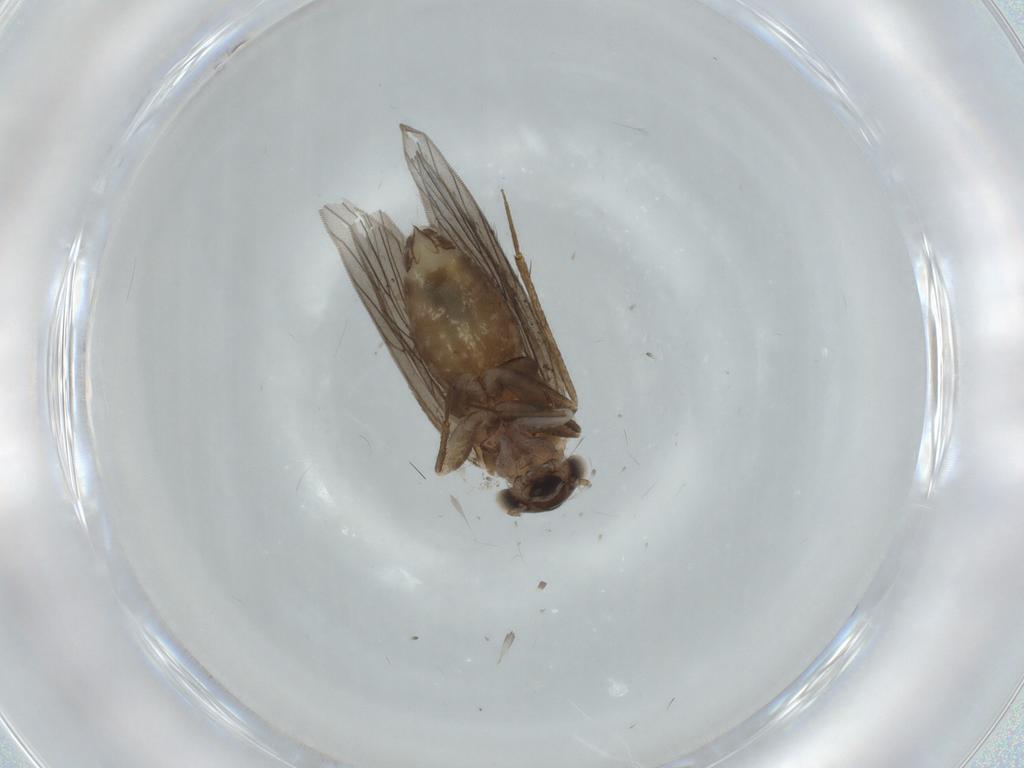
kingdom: Animalia
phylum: Arthropoda
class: Insecta
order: Psocodea
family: Lepidopsocidae
